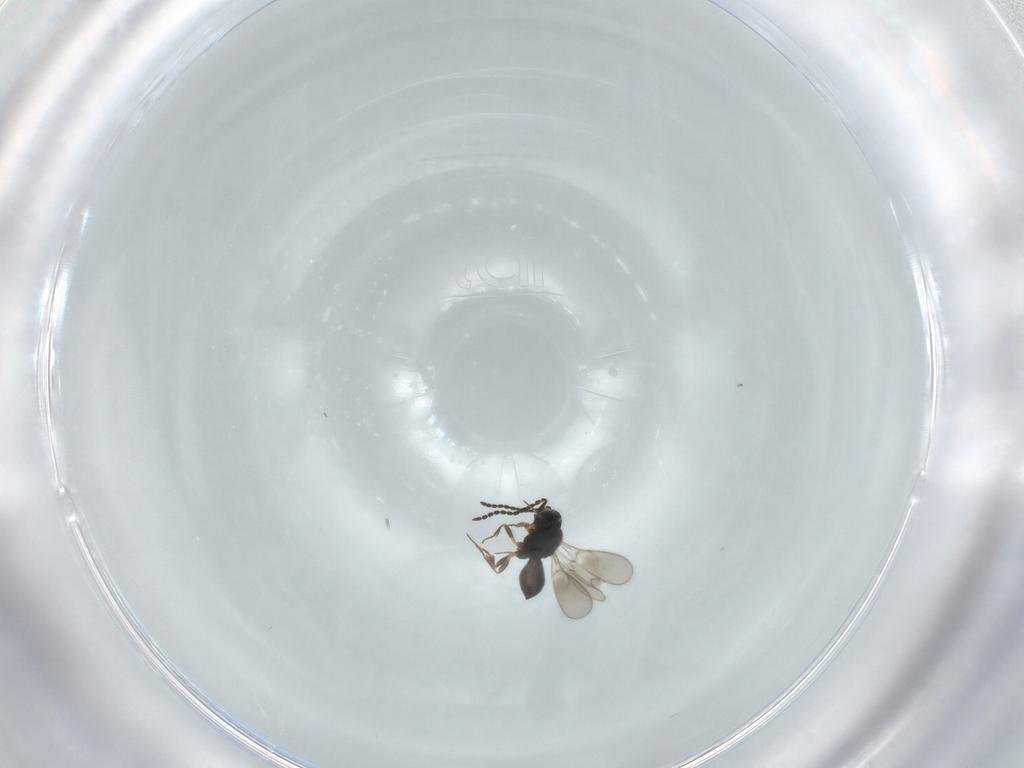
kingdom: Animalia
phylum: Arthropoda
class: Insecta
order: Hymenoptera
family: Scelionidae
